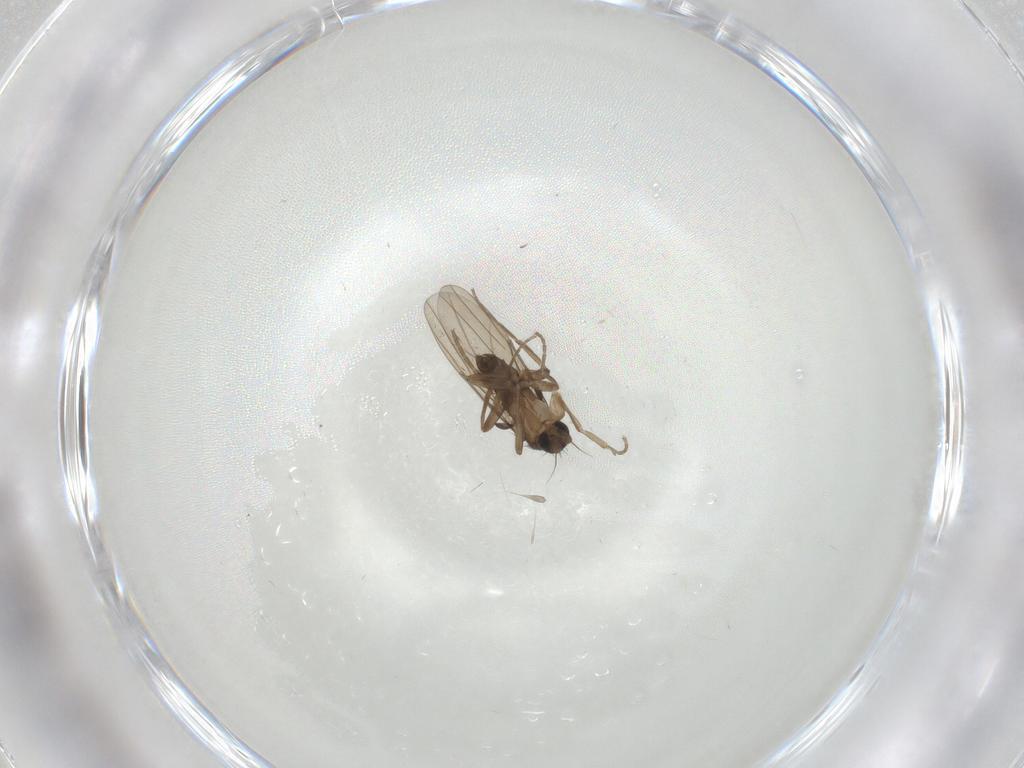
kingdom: Animalia
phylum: Arthropoda
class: Insecta
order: Diptera
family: Chironomidae
